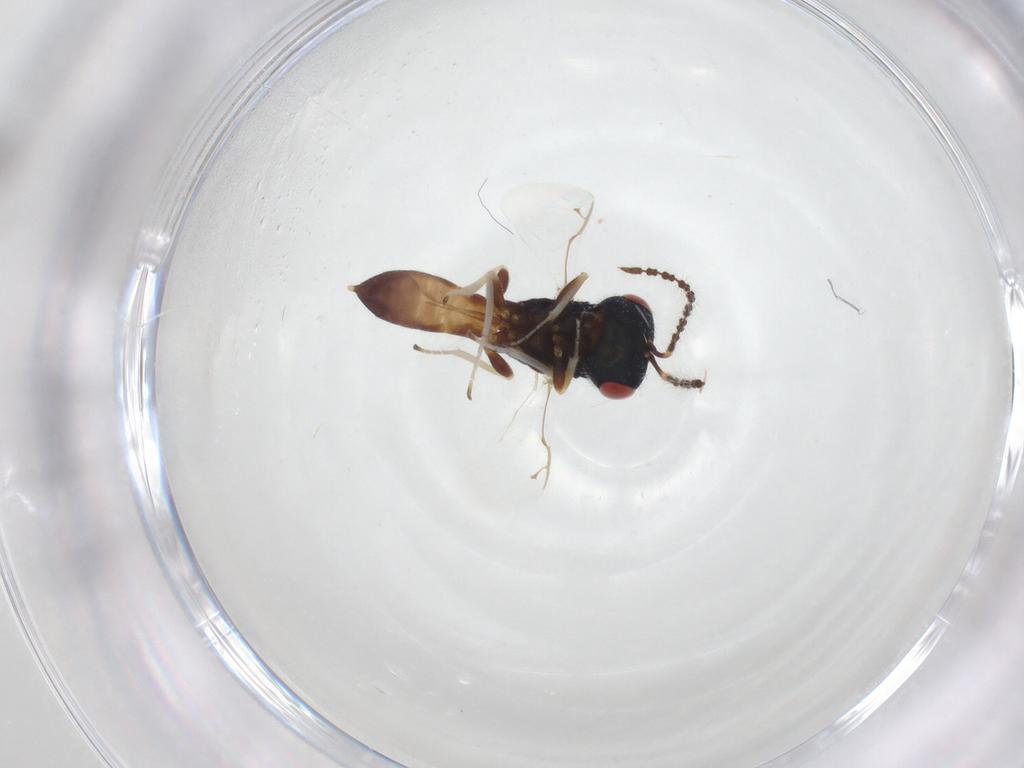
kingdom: Animalia
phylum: Arthropoda
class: Insecta
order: Hymenoptera
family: Pteromalidae
